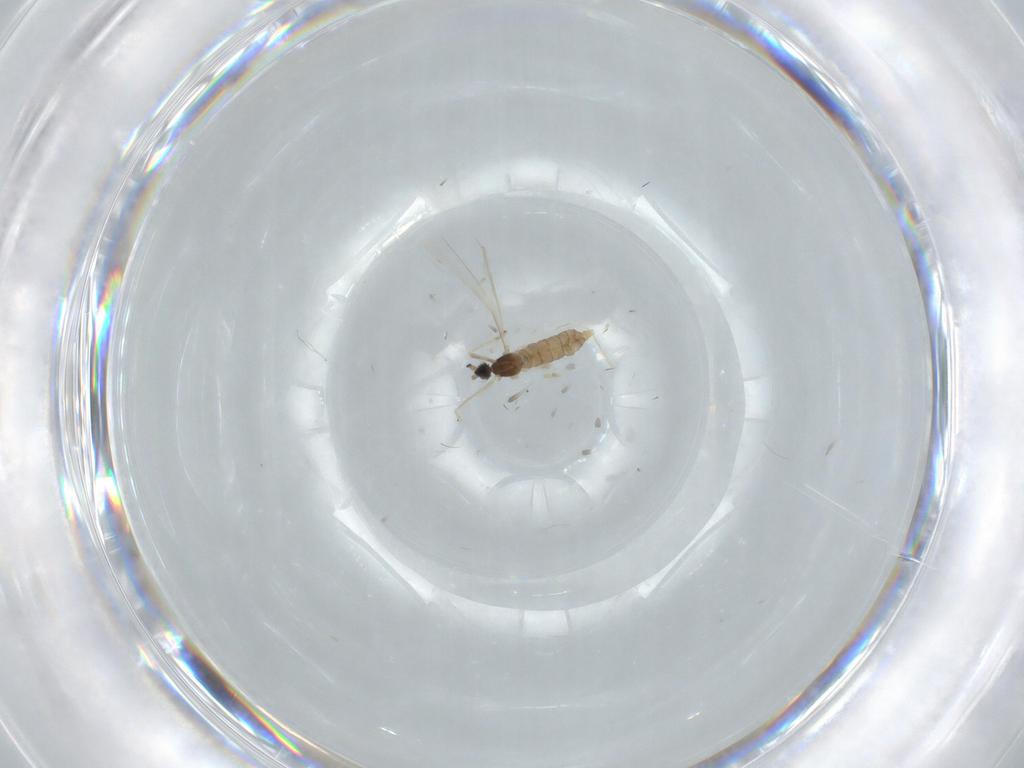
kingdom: Animalia
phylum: Arthropoda
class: Insecta
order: Diptera
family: Cecidomyiidae
